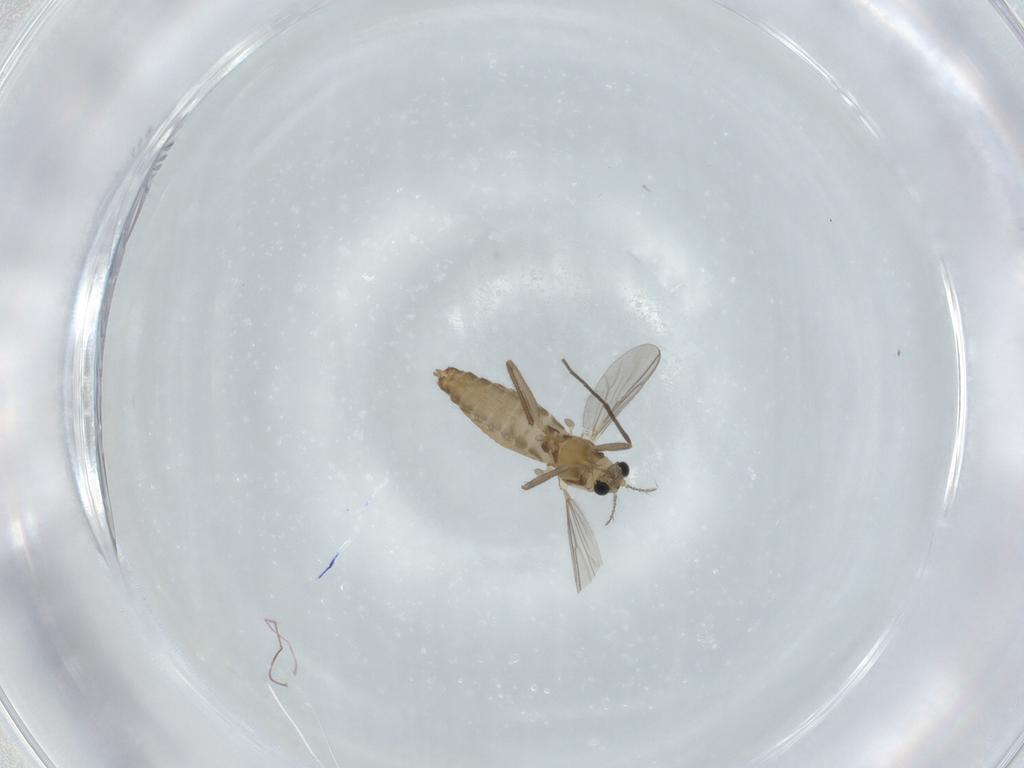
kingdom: Animalia
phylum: Arthropoda
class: Insecta
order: Diptera
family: Chironomidae
